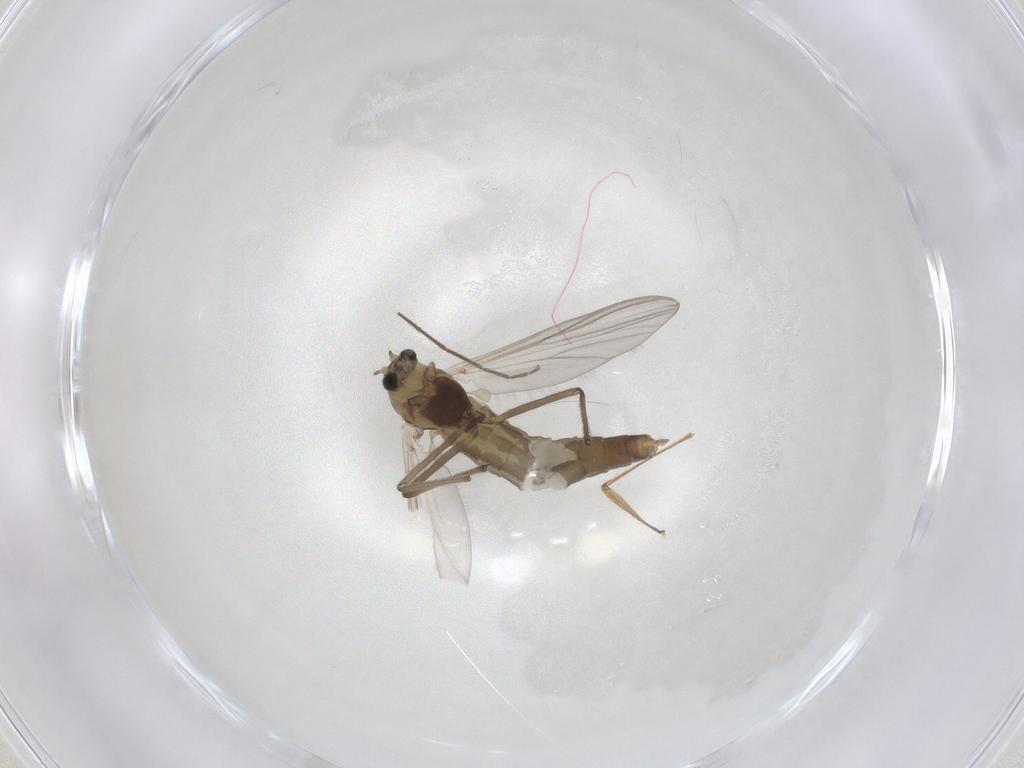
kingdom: Animalia
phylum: Arthropoda
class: Insecta
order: Diptera
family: Chironomidae
